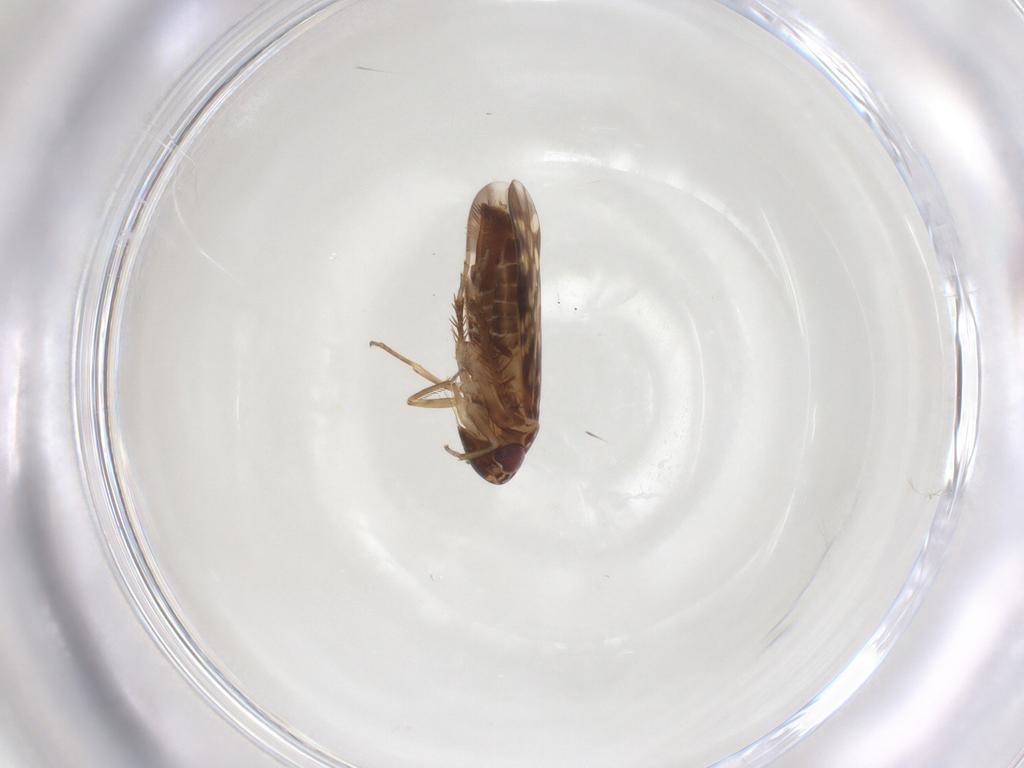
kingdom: Animalia
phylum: Arthropoda
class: Insecta
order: Hemiptera
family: Cicadellidae
